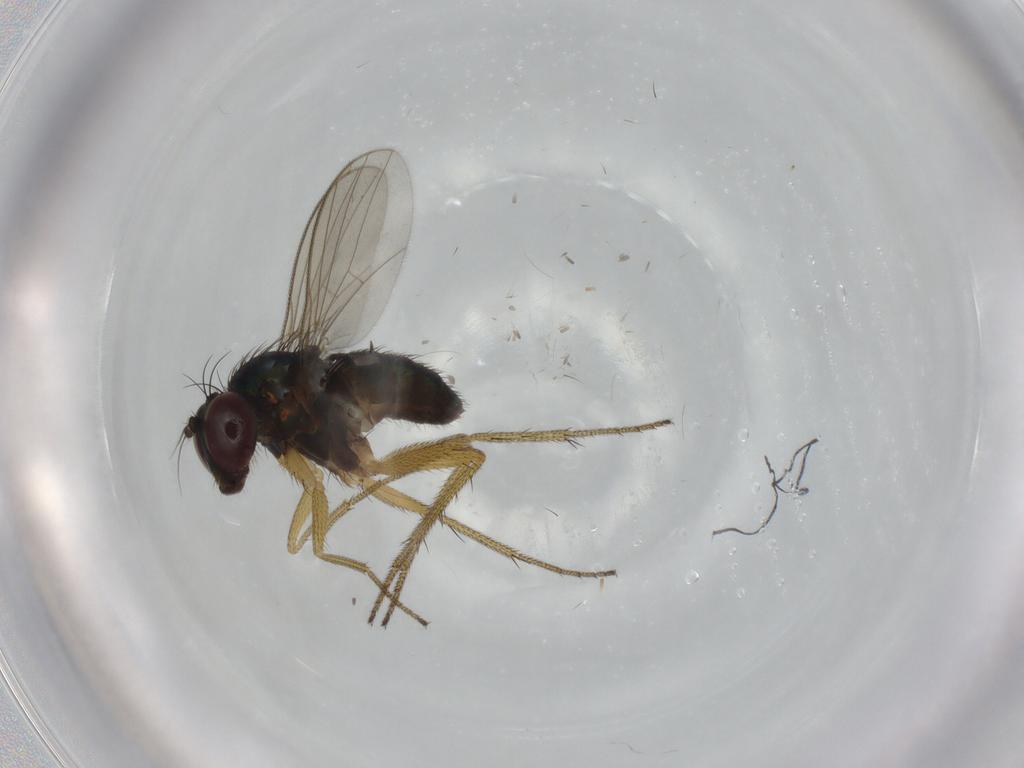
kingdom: Animalia
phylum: Arthropoda
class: Insecta
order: Diptera
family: Dolichopodidae
